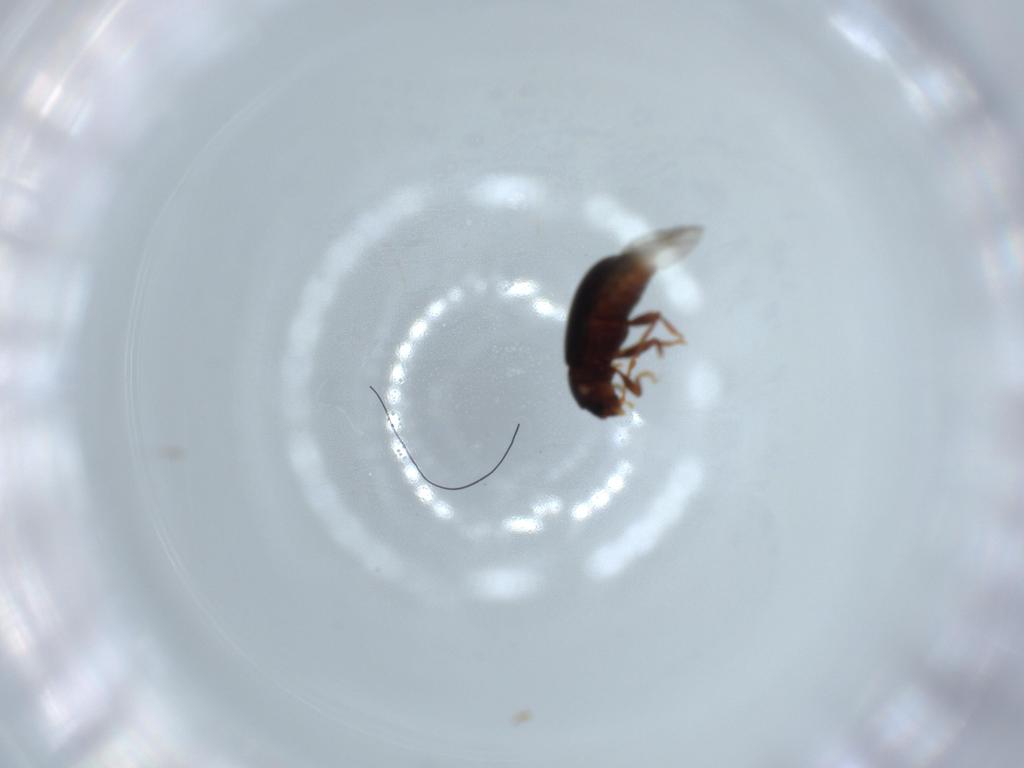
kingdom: Animalia
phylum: Arthropoda
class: Insecta
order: Coleoptera
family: Ptinidae
